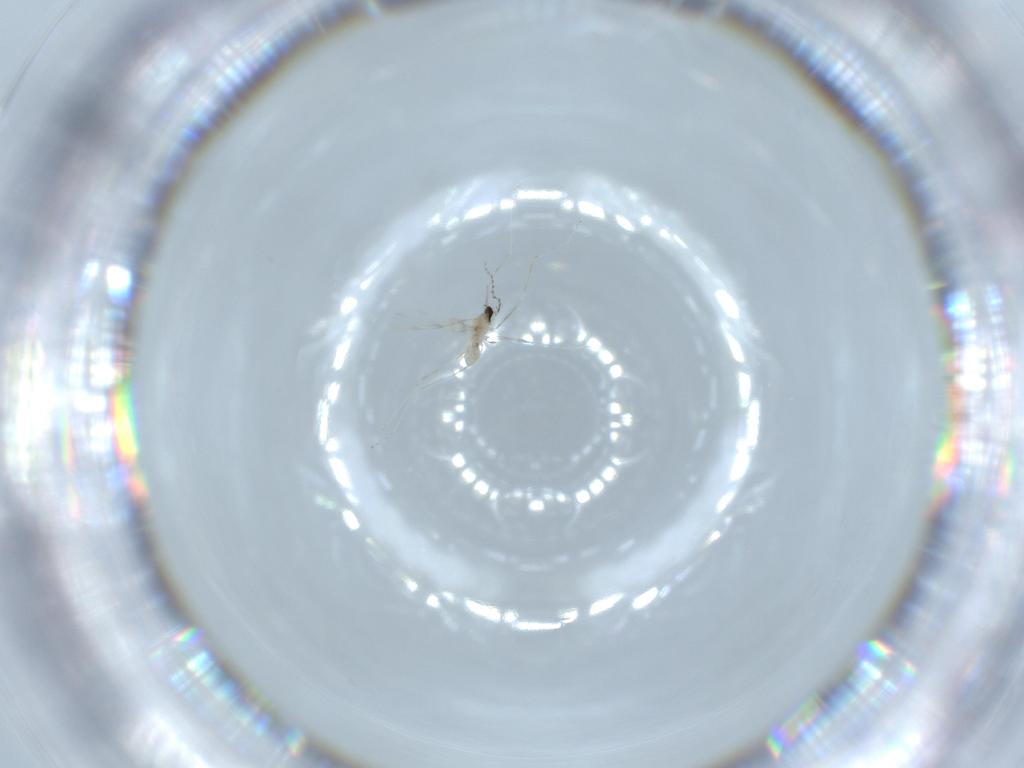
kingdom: Animalia
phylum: Arthropoda
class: Insecta
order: Diptera
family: Cecidomyiidae
